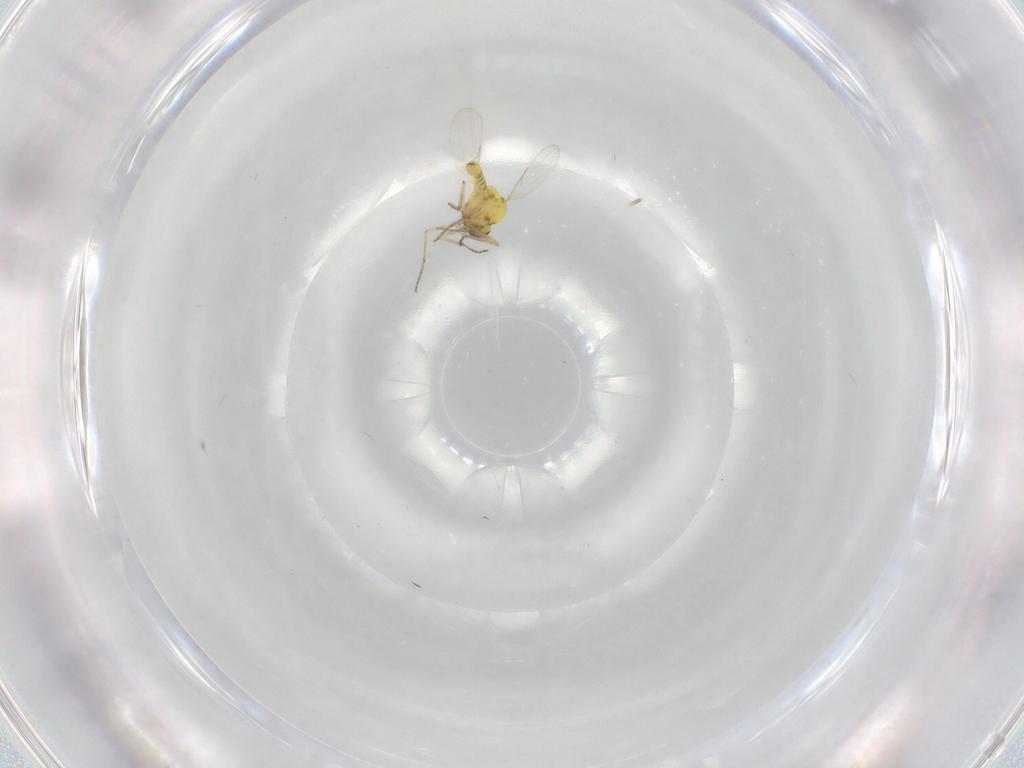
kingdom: Animalia
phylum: Arthropoda
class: Insecta
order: Diptera
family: Ceratopogonidae
